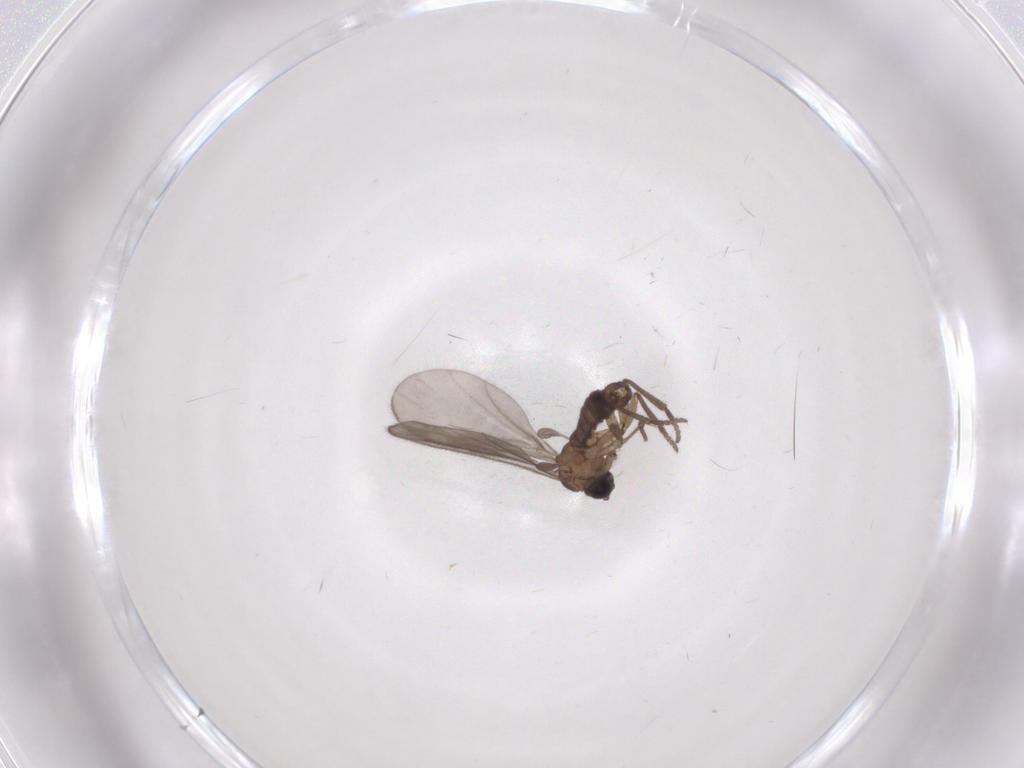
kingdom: Animalia
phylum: Arthropoda
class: Insecta
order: Diptera
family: Sciaridae
